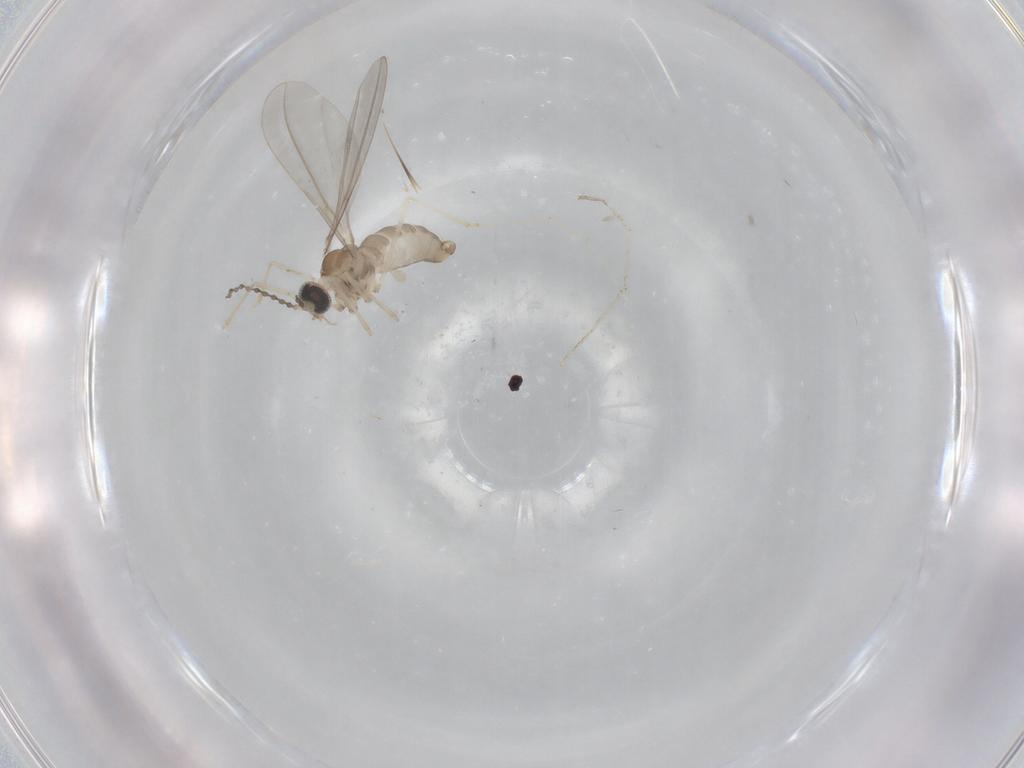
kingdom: Animalia
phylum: Arthropoda
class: Insecta
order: Diptera
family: Cecidomyiidae
